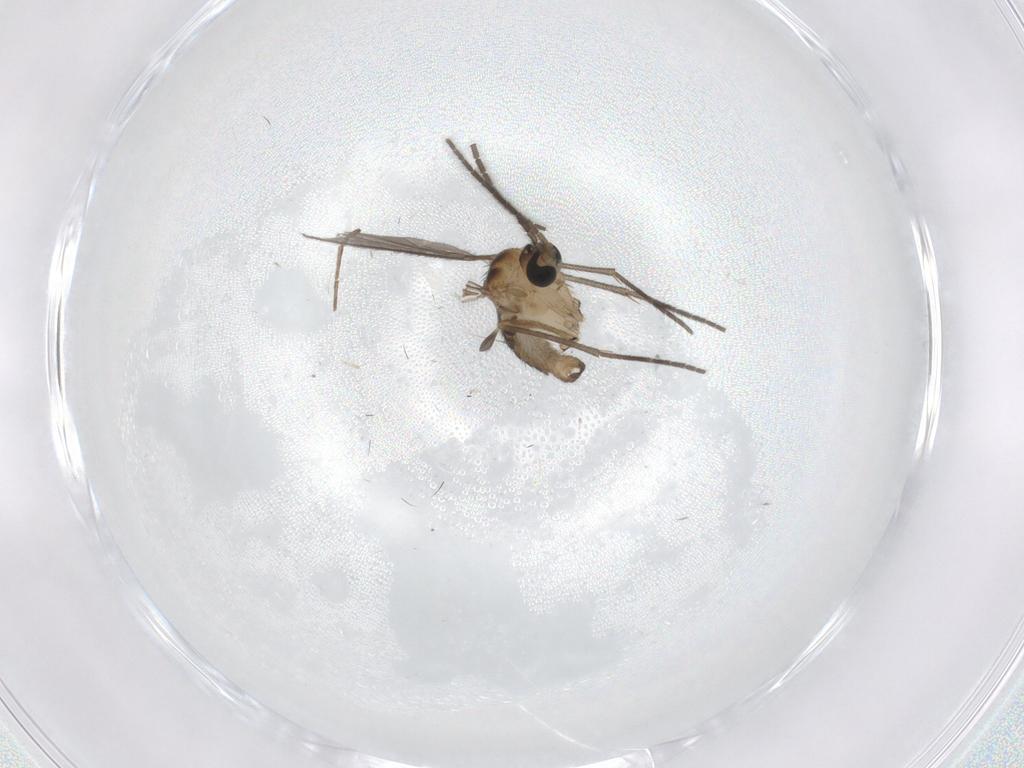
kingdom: Animalia
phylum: Arthropoda
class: Insecta
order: Diptera
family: Sciaridae
